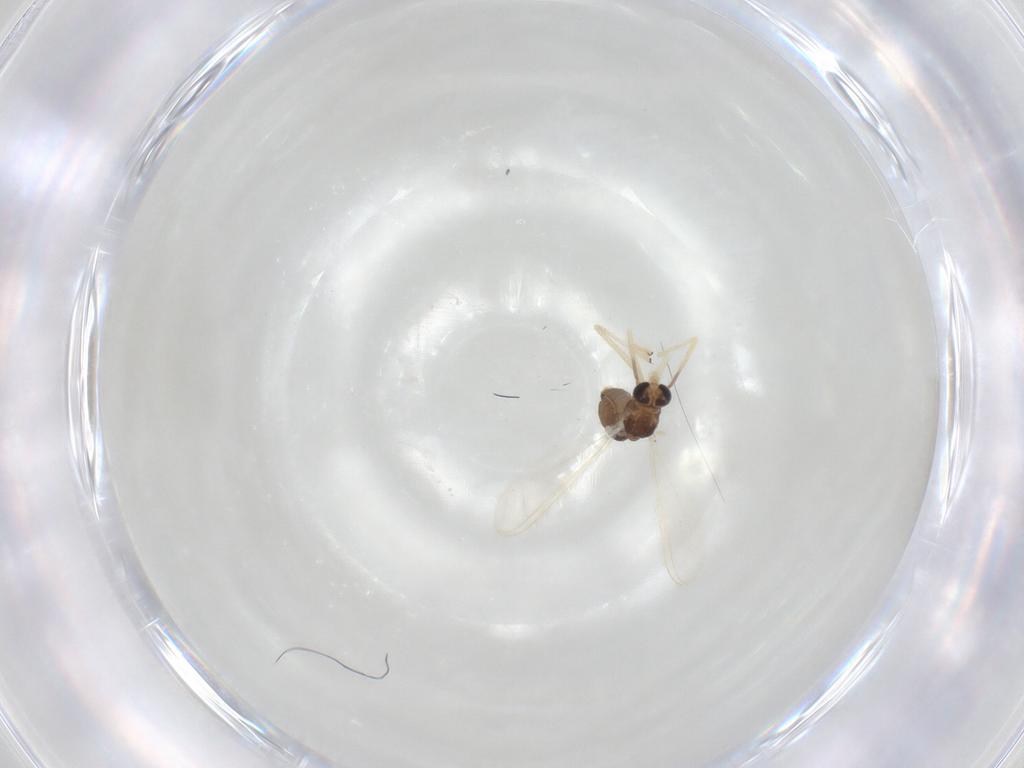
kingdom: Animalia
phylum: Arthropoda
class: Insecta
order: Diptera
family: Chironomidae
